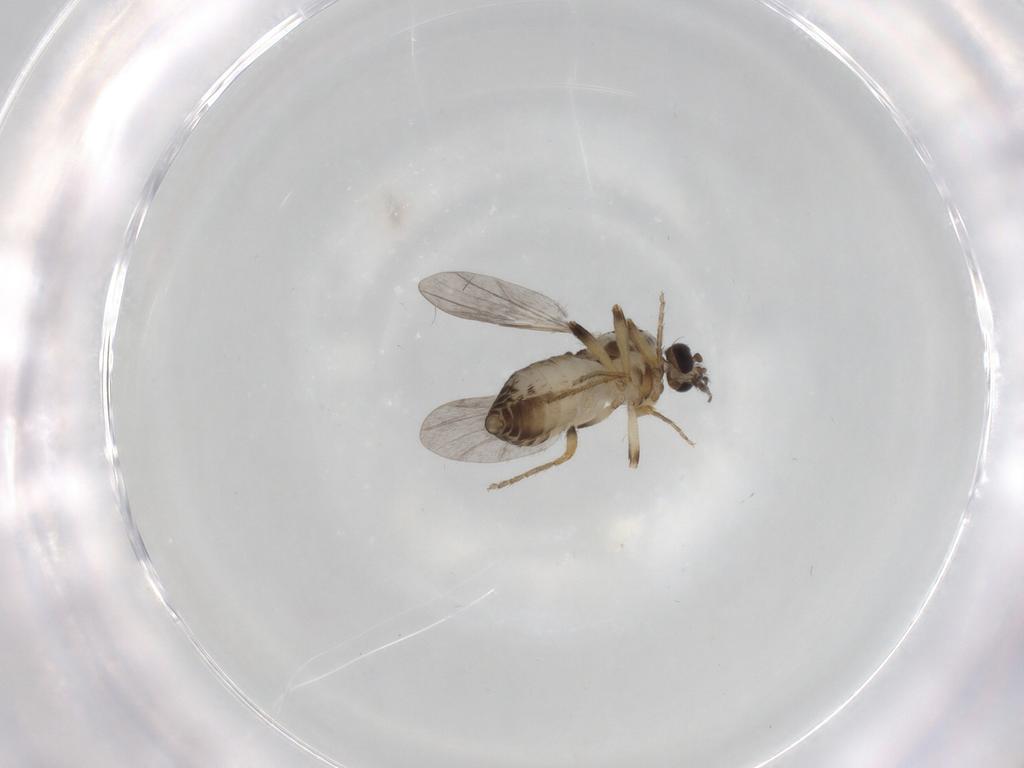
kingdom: Animalia
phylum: Arthropoda
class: Insecta
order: Diptera
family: Ceratopogonidae
